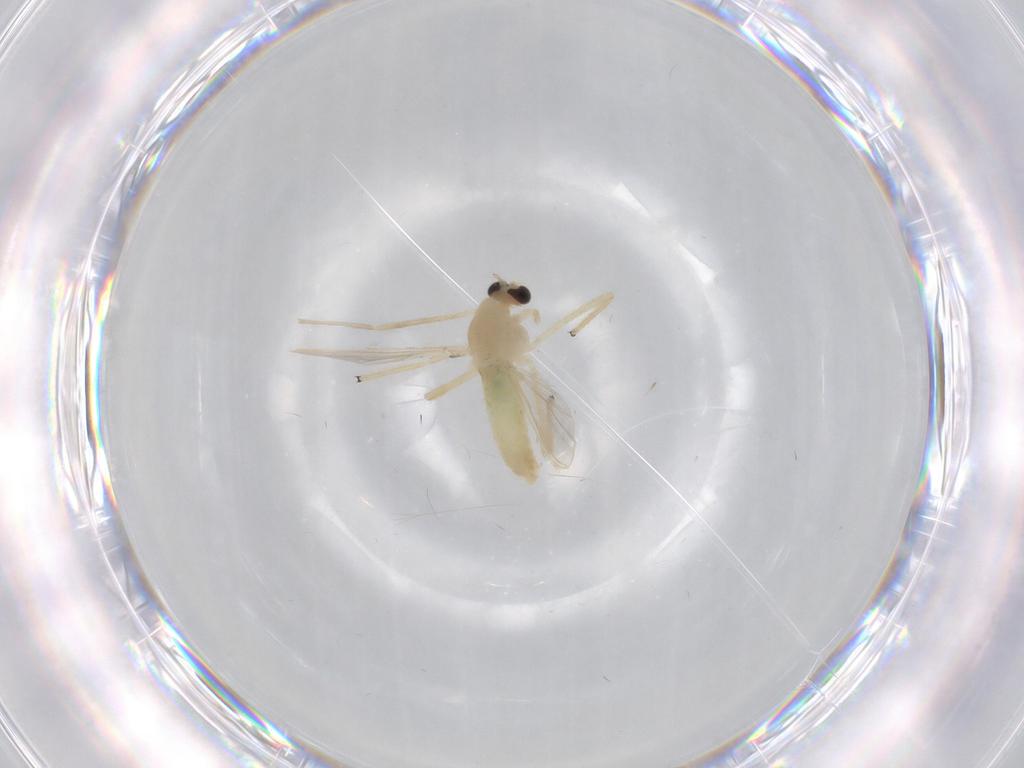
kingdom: Animalia
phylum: Arthropoda
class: Insecta
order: Diptera
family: Chironomidae
